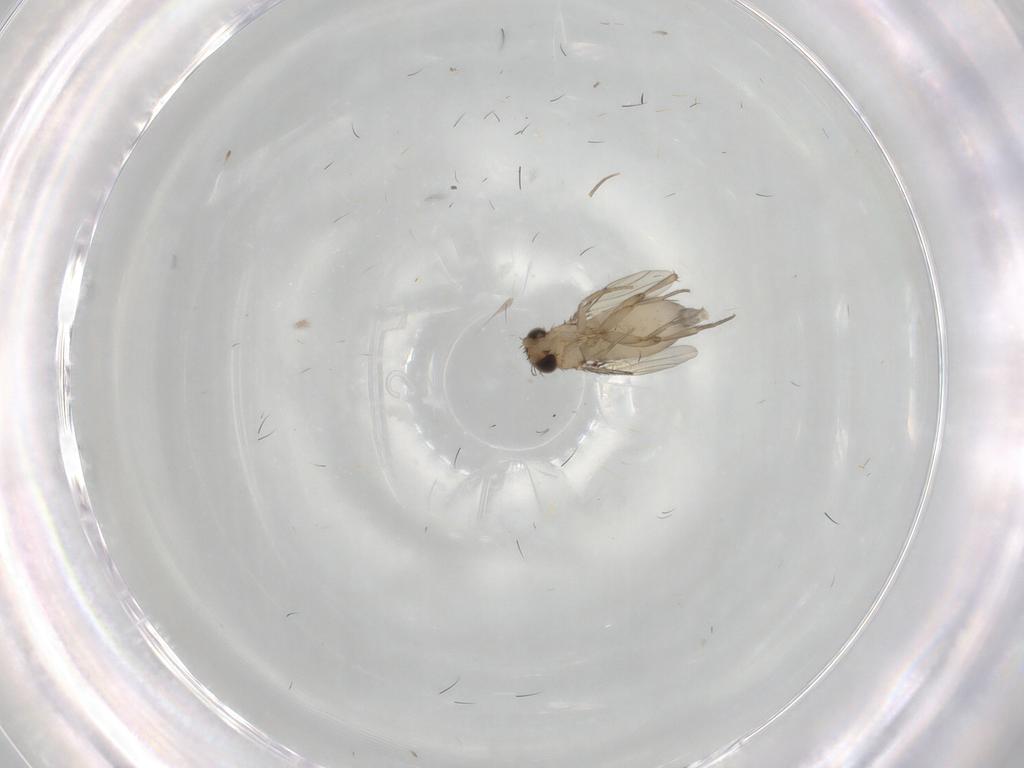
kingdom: Animalia
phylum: Arthropoda
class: Insecta
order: Diptera
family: Phoridae
